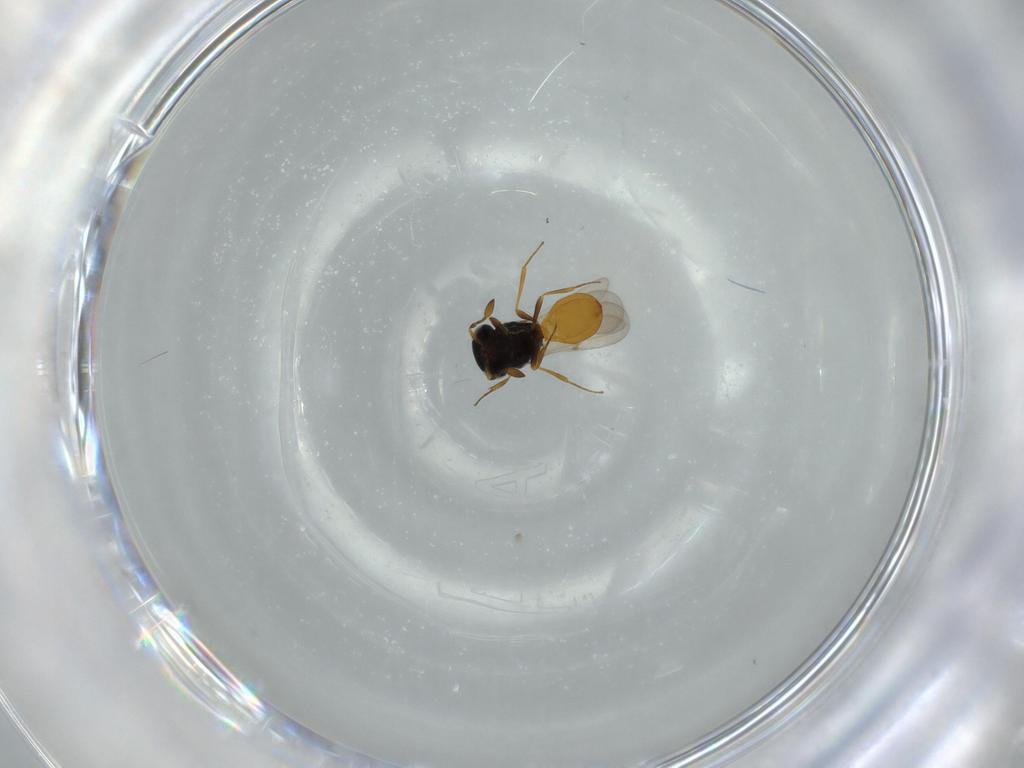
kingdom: Animalia
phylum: Arthropoda
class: Insecta
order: Hymenoptera
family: Scelionidae
